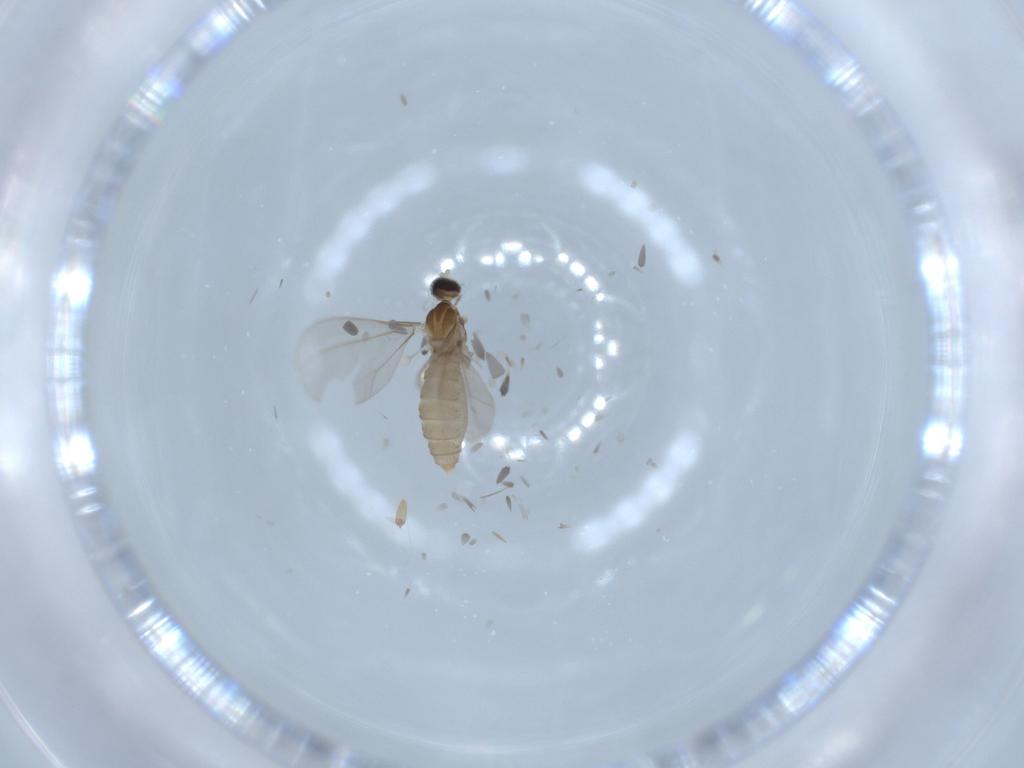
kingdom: Animalia
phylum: Arthropoda
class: Insecta
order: Diptera
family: Cecidomyiidae
